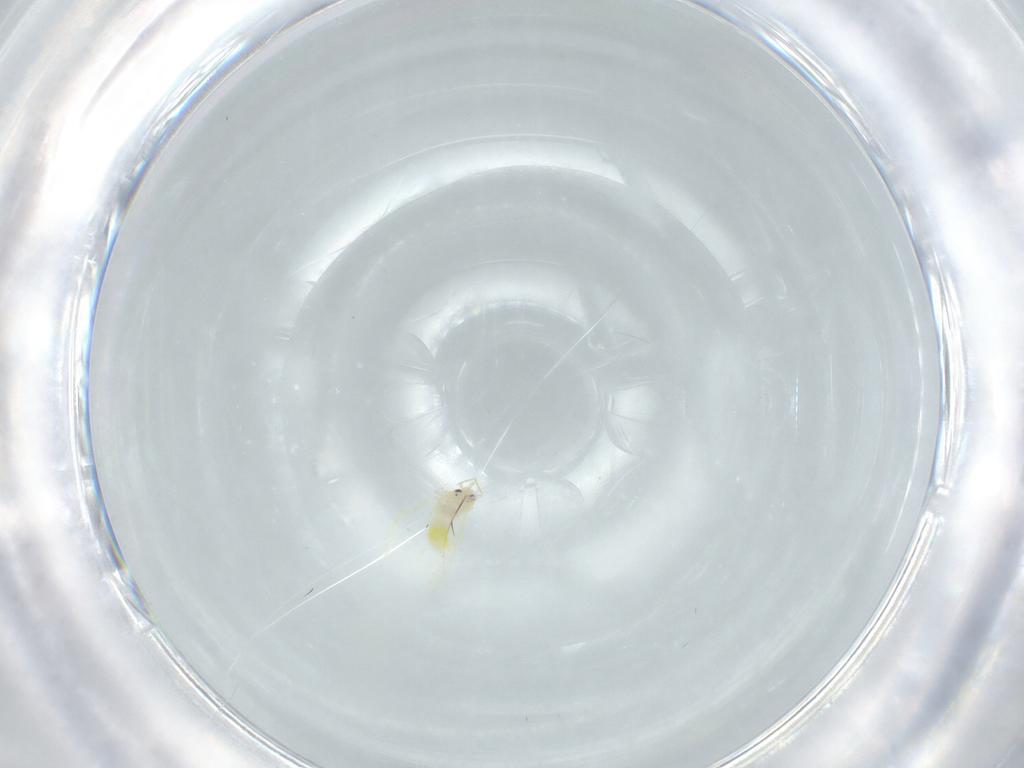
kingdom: Animalia
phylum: Arthropoda
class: Insecta
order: Hemiptera
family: Aleyrodidae
